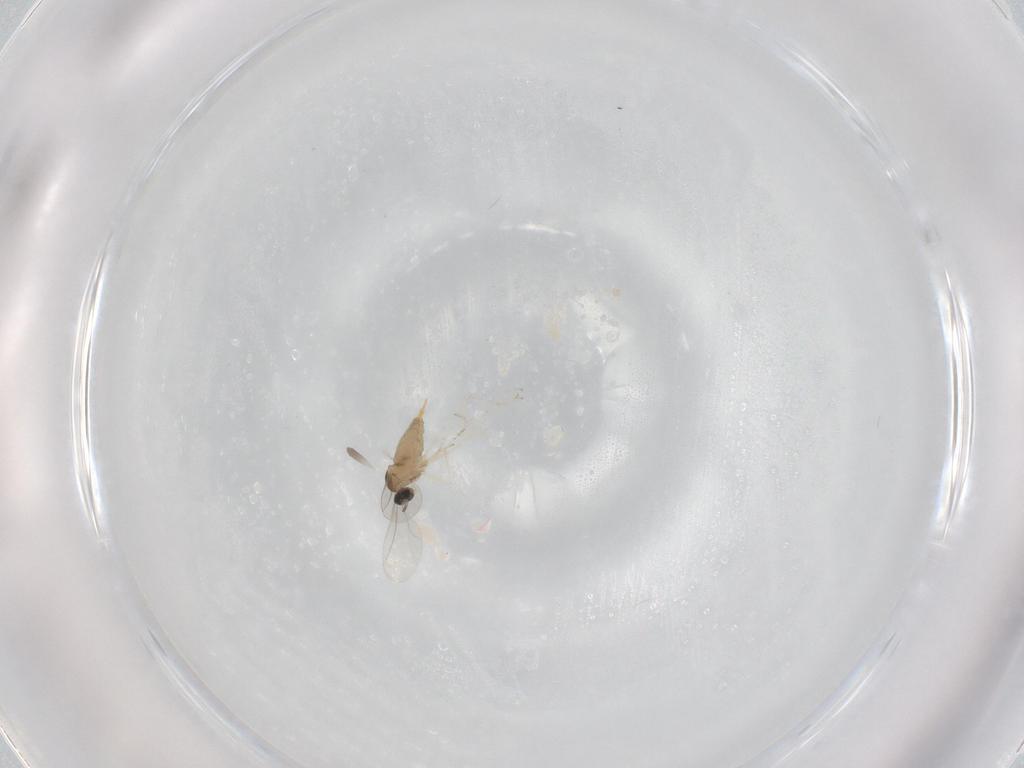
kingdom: Animalia
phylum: Arthropoda
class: Insecta
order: Diptera
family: Cecidomyiidae
